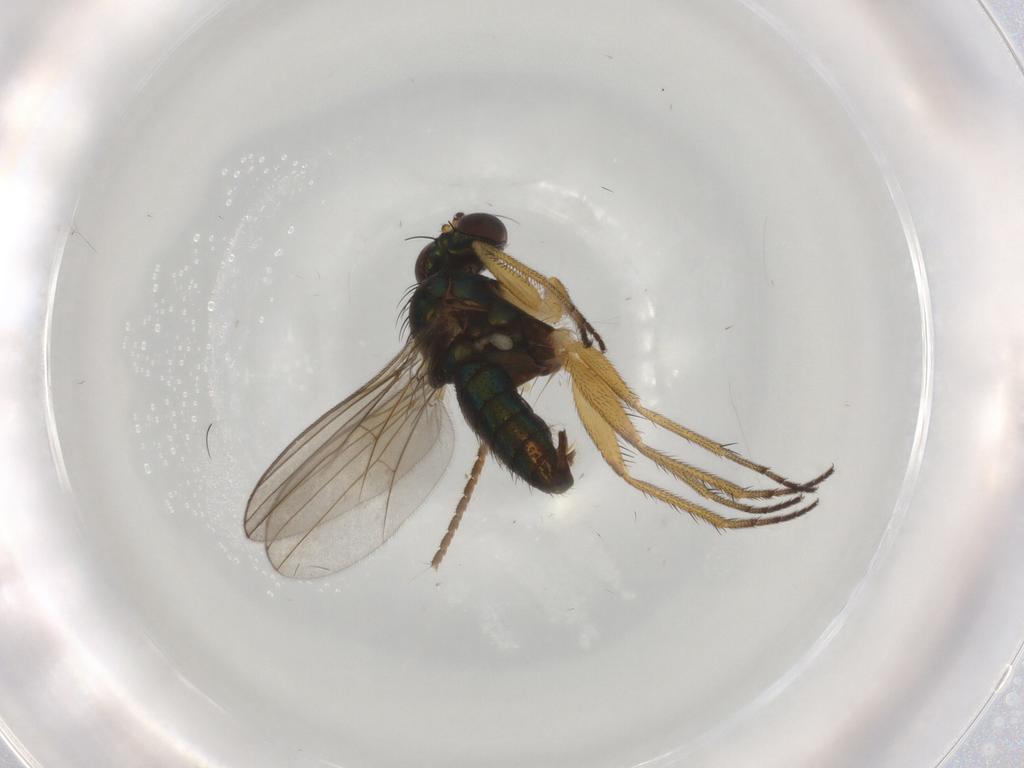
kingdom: Animalia
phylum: Arthropoda
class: Insecta
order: Diptera
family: Dolichopodidae
